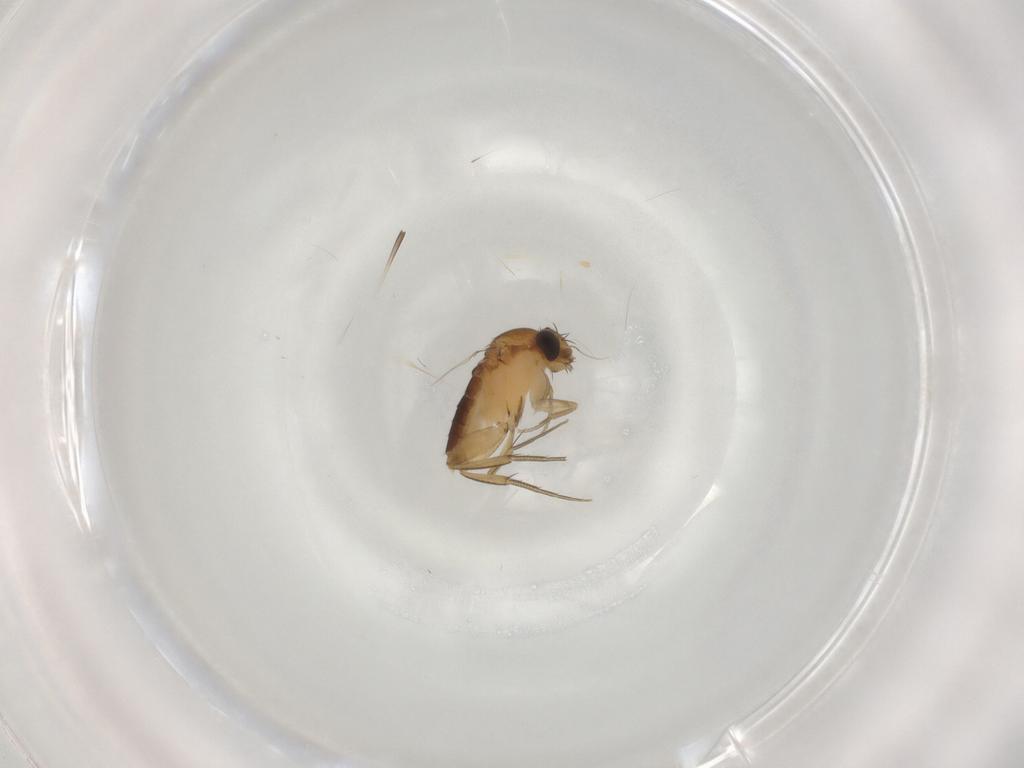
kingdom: Animalia
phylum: Arthropoda
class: Insecta
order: Diptera
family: Phoridae
